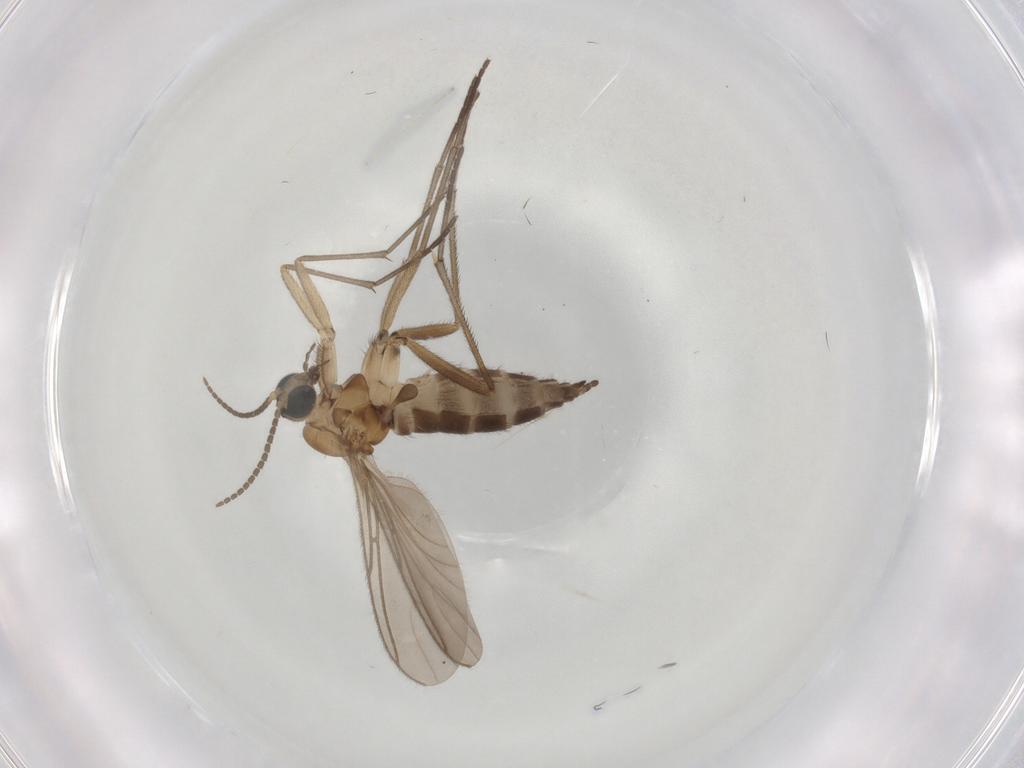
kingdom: Animalia
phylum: Arthropoda
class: Insecta
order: Diptera
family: Sciaridae
